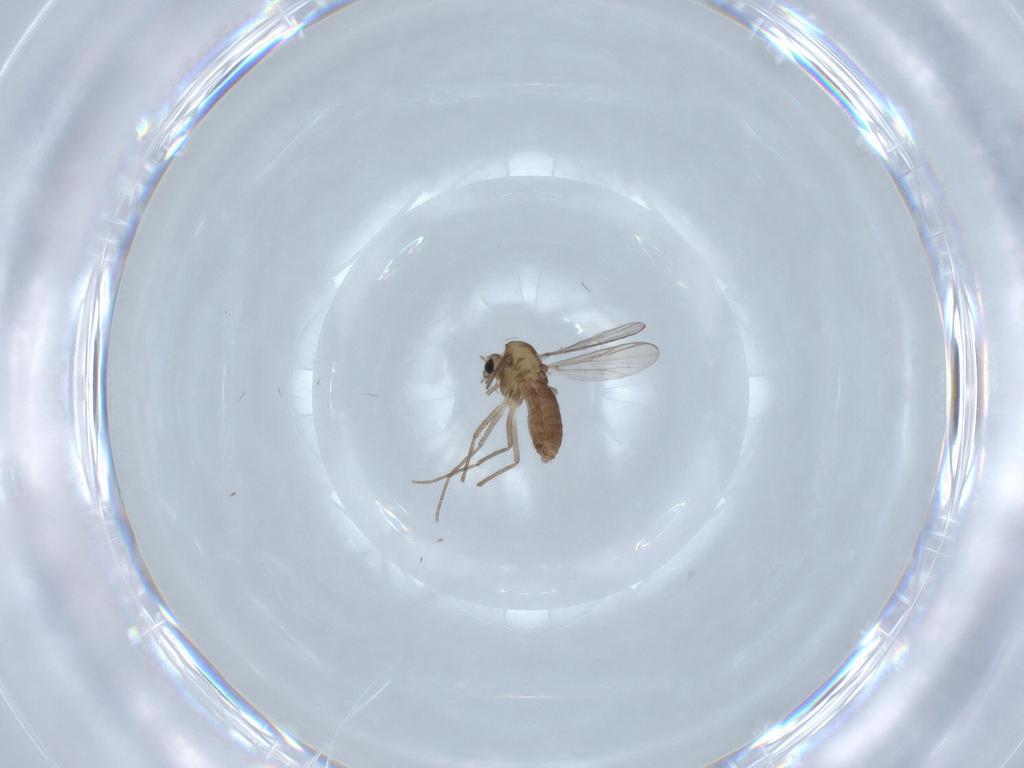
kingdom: Animalia
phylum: Arthropoda
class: Insecta
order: Diptera
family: Chironomidae
